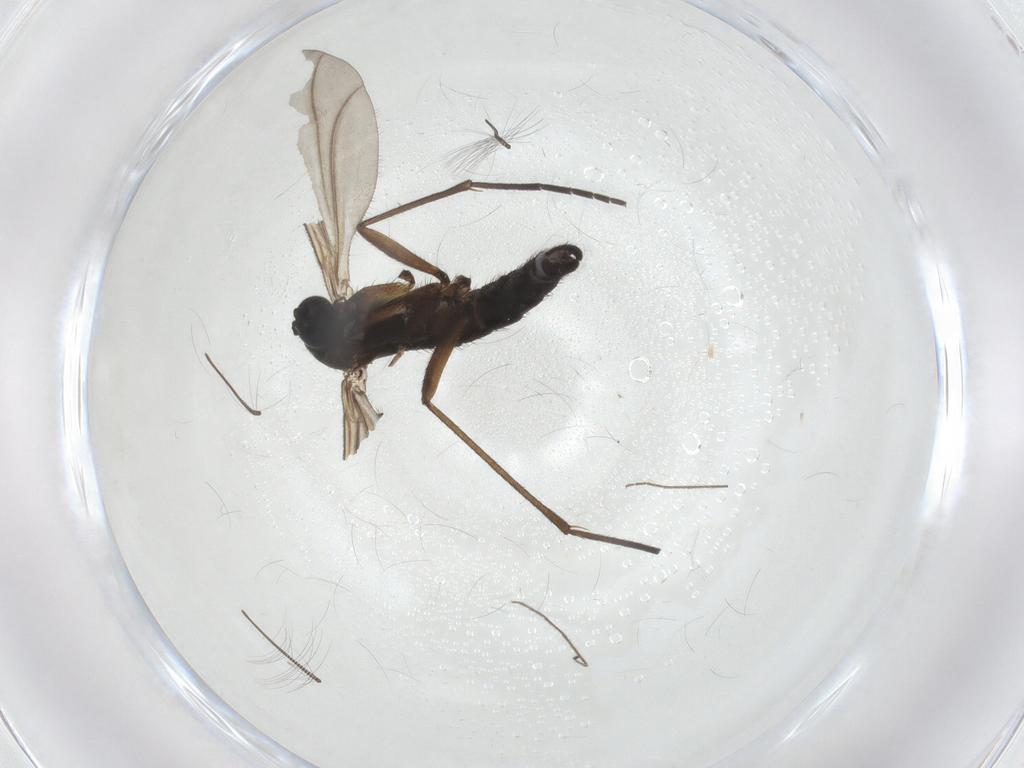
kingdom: Animalia
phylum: Arthropoda
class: Insecta
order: Diptera
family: Sciaridae
